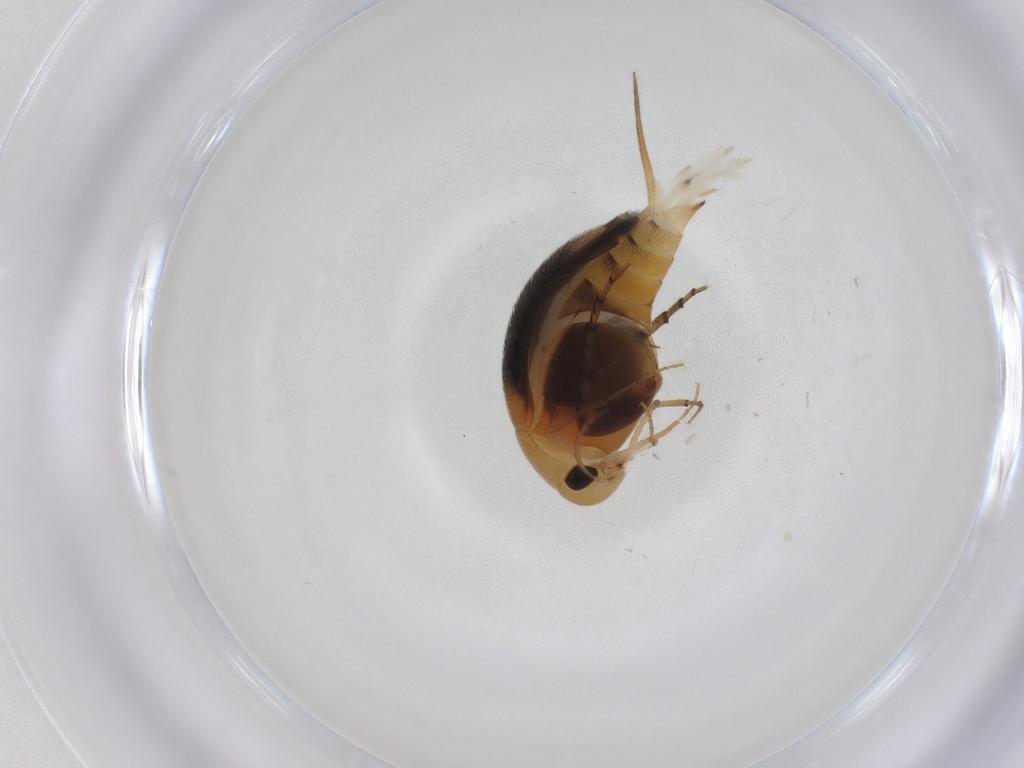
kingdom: Animalia
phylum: Arthropoda
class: Insecta
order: Coleoptera
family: Mordellidae
